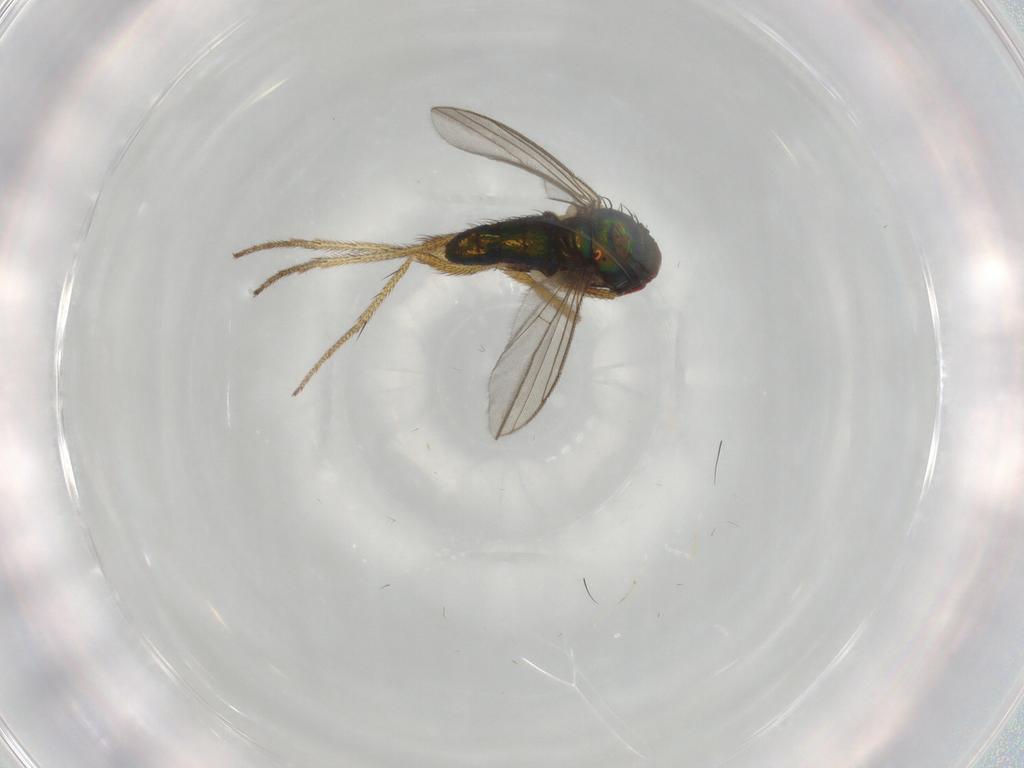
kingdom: Animalia
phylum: Arthropoda
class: Insecta
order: Diptera
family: Dolichopodidae
